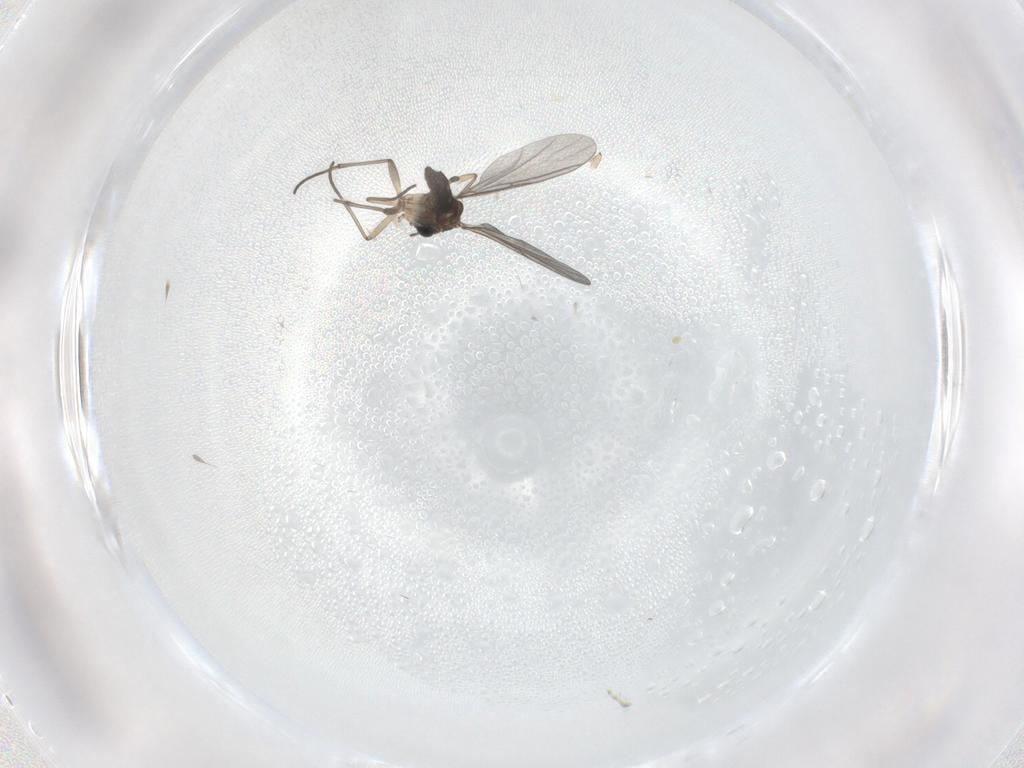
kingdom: Animalia
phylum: Arthropoda
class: Insecta
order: Diptera
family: Sciaridae
